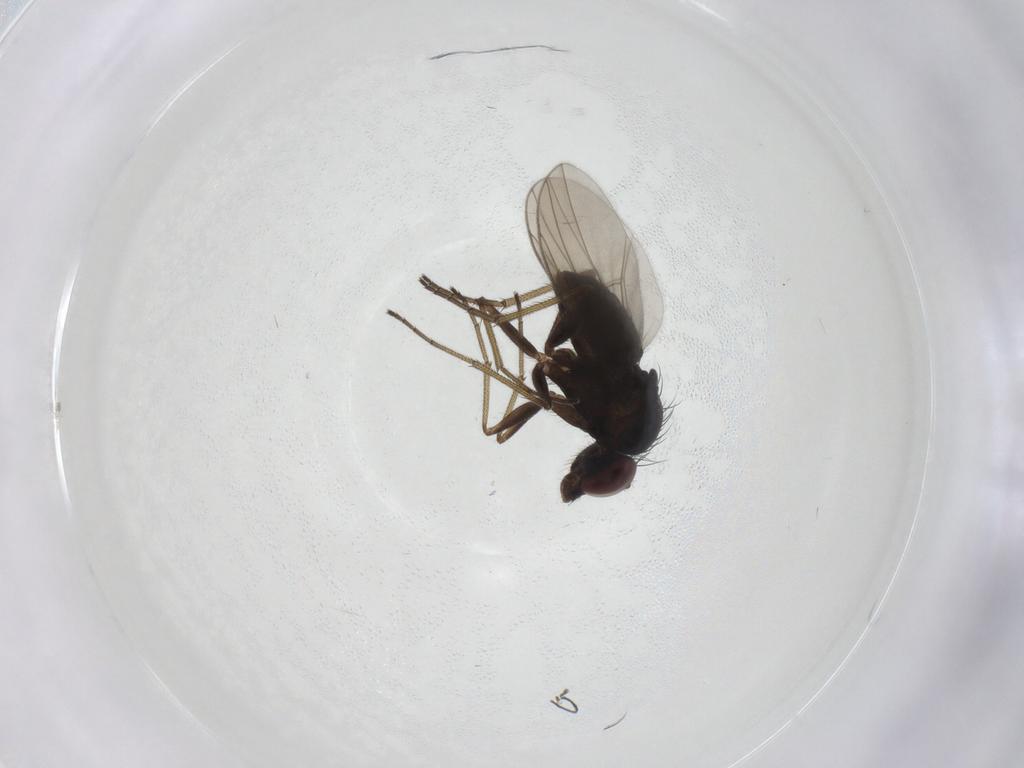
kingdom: Animalia
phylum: Arthropoda
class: Insecta
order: Diptera
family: Dolichopodidae
